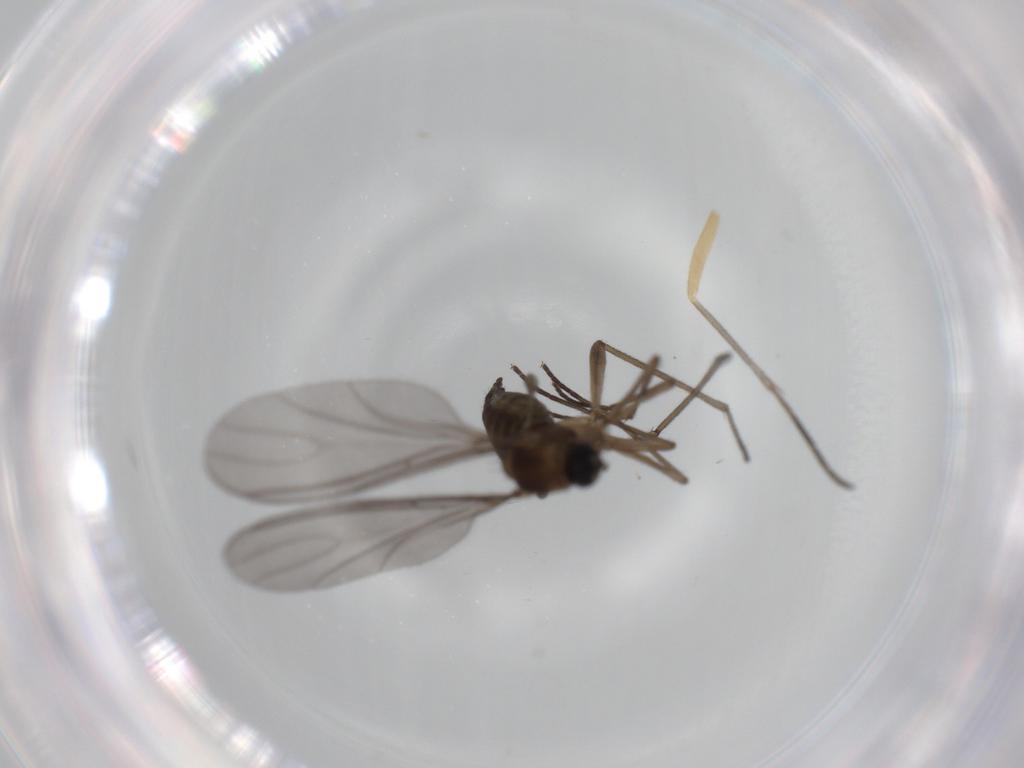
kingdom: Animalia
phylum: Arthropoda
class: Insecta
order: Diptera
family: Sciaridae
